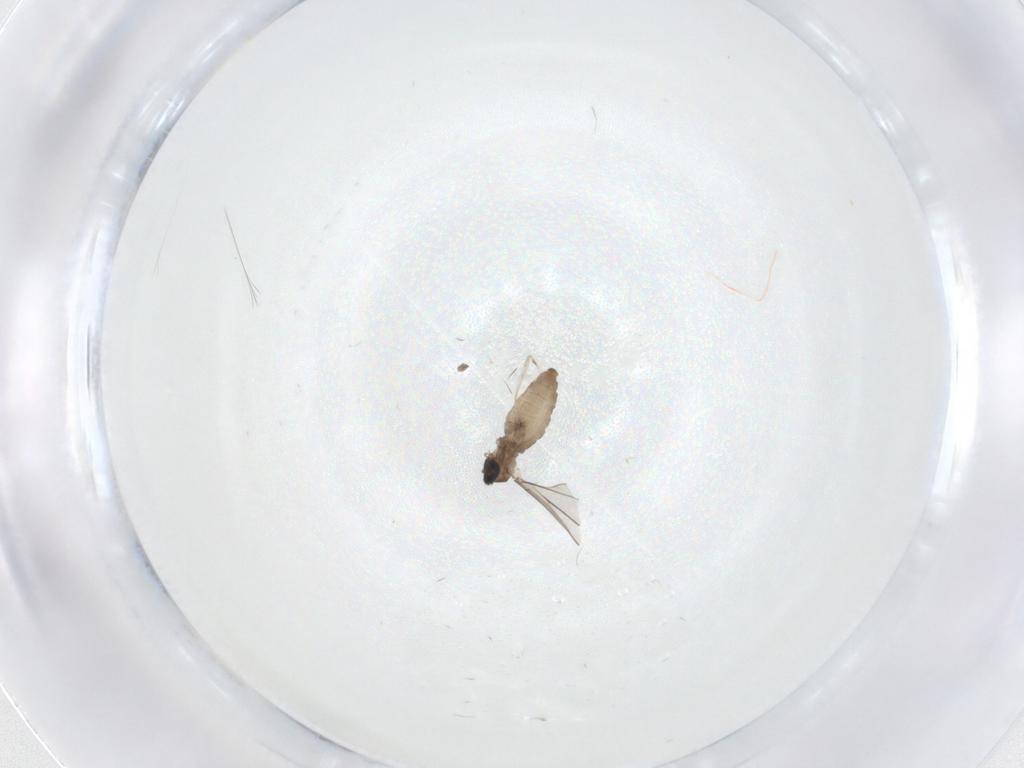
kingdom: Animalia
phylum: Arthropoda
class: Insecta
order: Diptera
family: Cecidomyiidae
